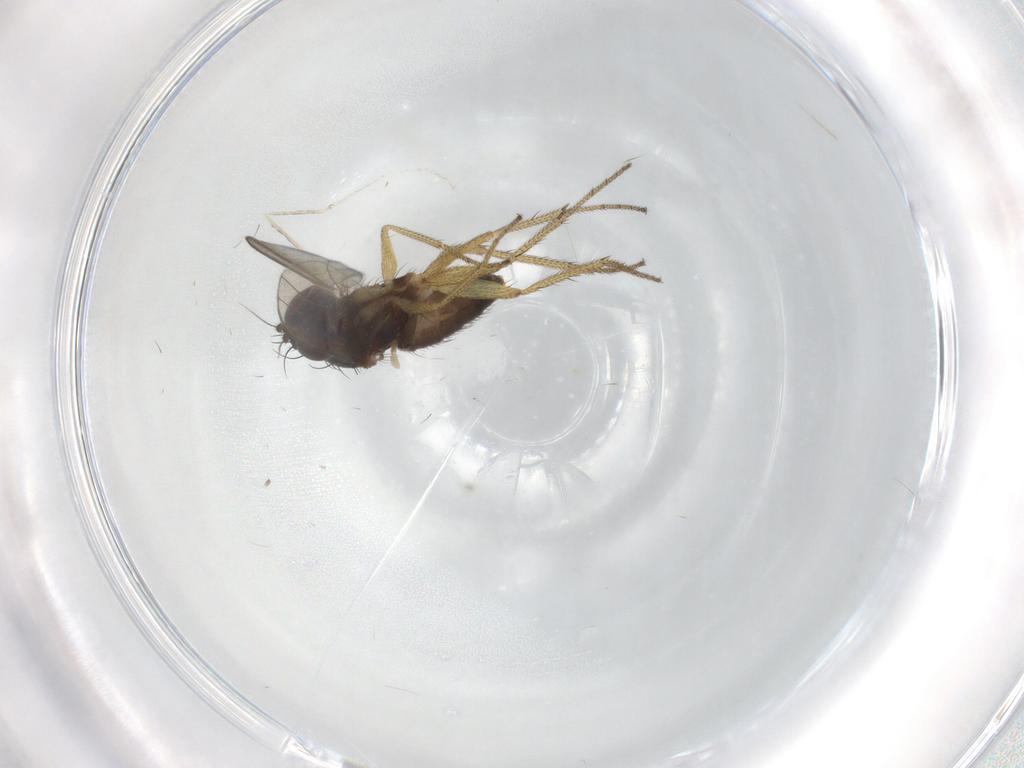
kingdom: Animalia
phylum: Arthropoda
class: Insecta
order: Diptera
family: Dolichopodidae
